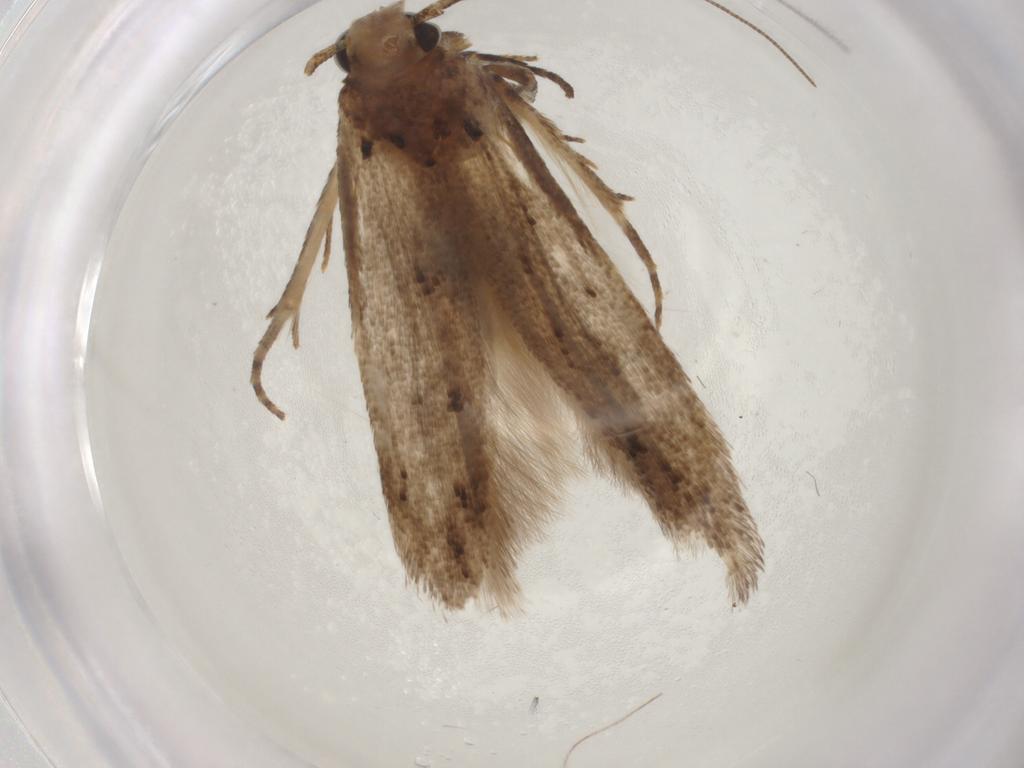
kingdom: Animalia
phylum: Arthropoda
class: Insecta
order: Lepidoptera
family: Gelechiidae
